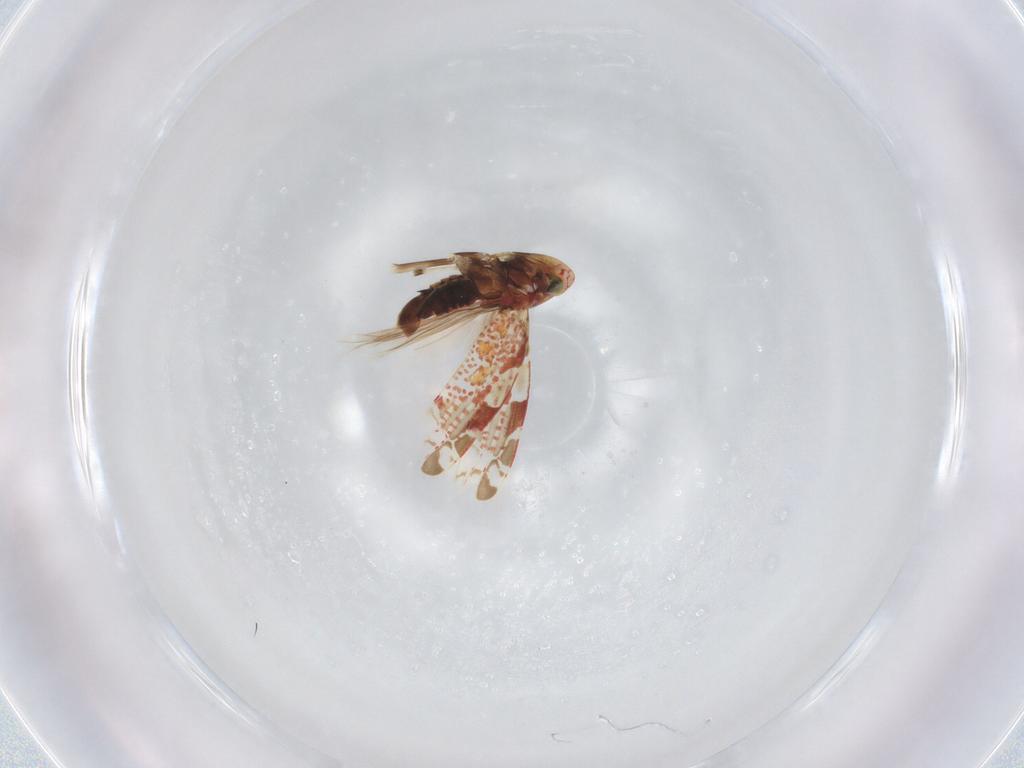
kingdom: Animalia
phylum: Arthropoda
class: Insecta
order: Hemiptera
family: Cicadellidae
